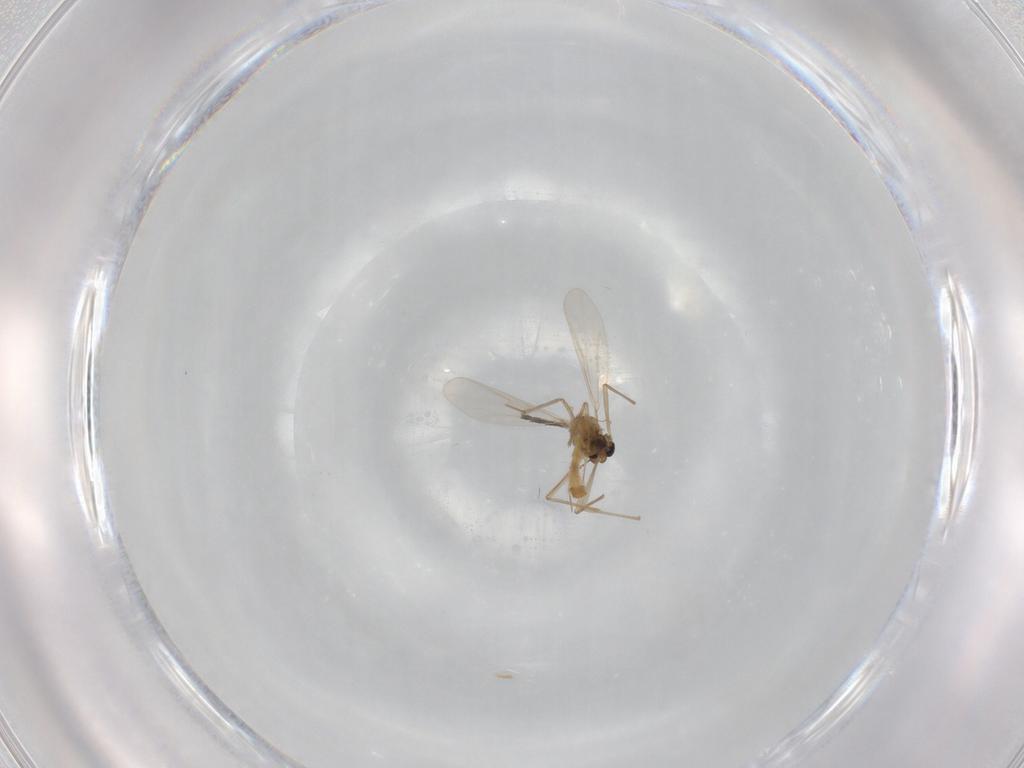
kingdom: Animalia
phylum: Arthropoda
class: Insecta
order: Diptera
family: Chironomidae
